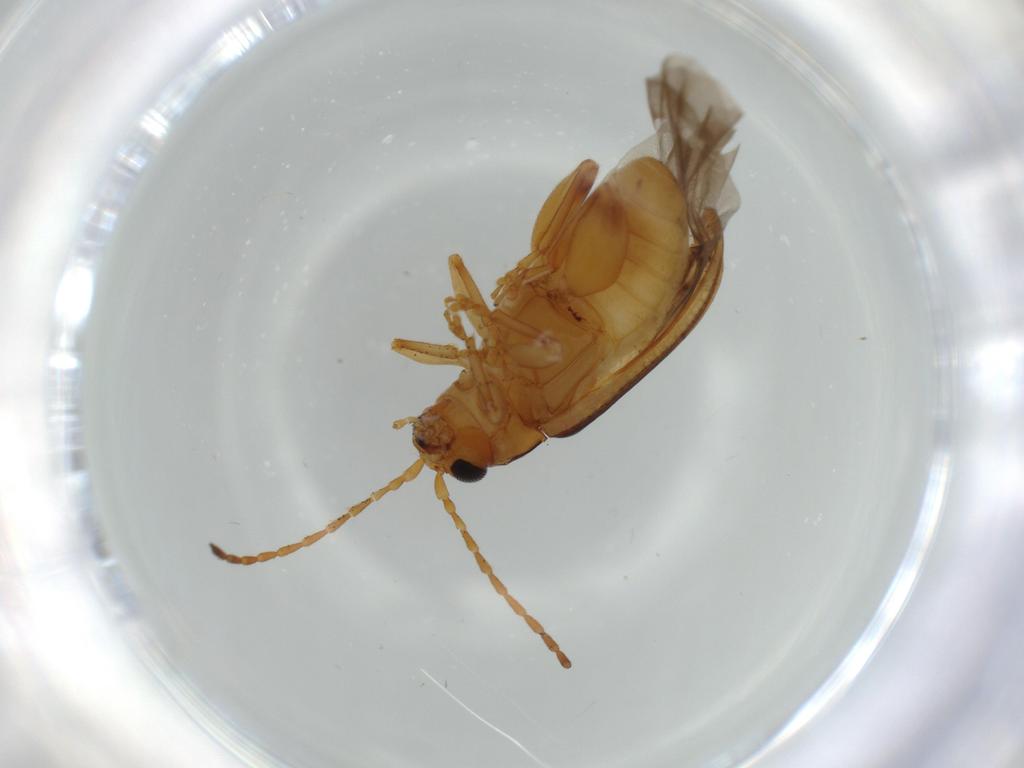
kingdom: Animalia
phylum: Arthropoda
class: Insecta
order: Coleoptera
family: Chrysomelidae
